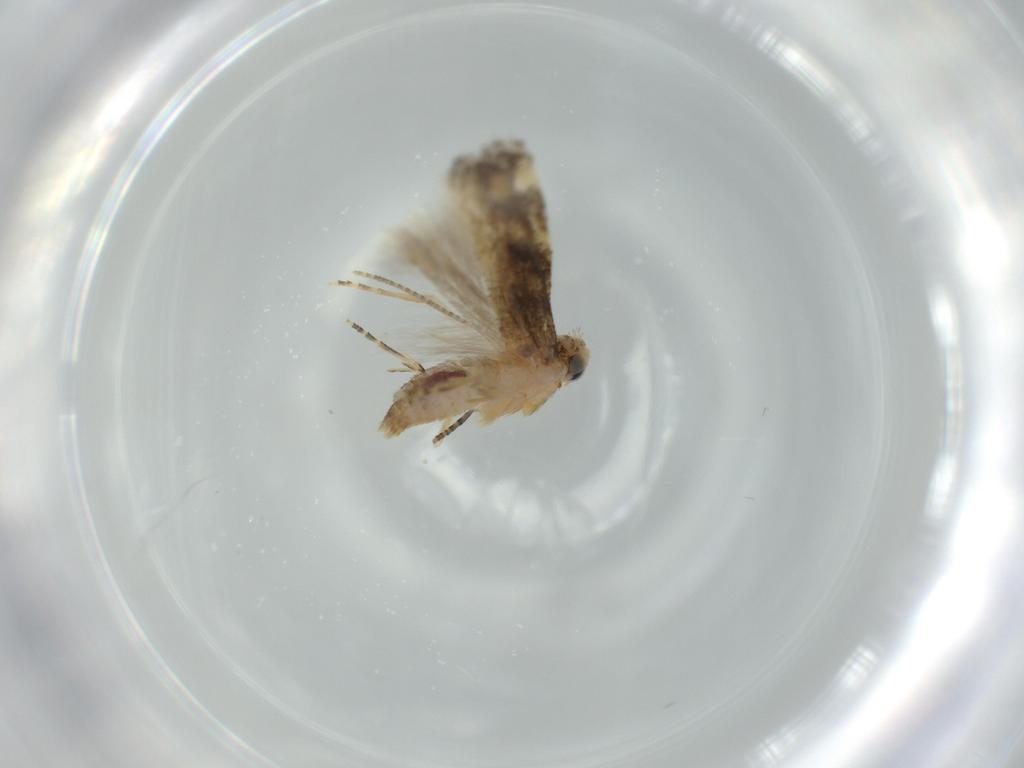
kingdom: Animalia
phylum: Arthropoda
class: Insecta
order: Lepidoptera
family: Bucculatricidae
